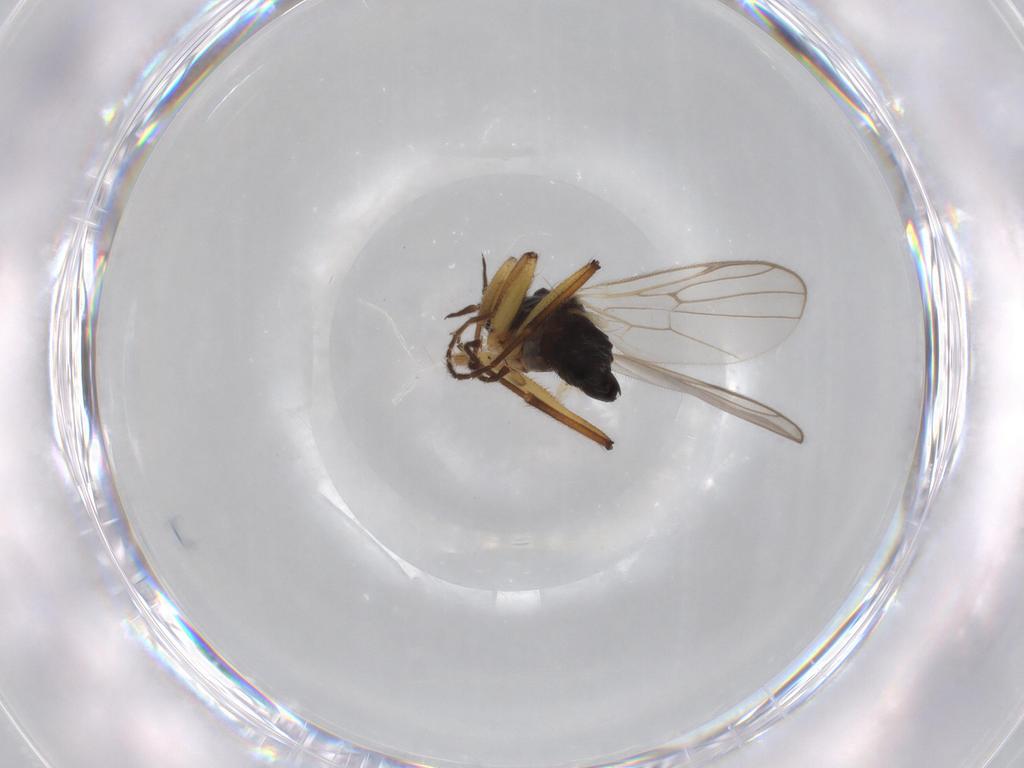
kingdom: Animalia
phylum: Arthropoda
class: Insecta
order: Diptera
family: Hybotidae
